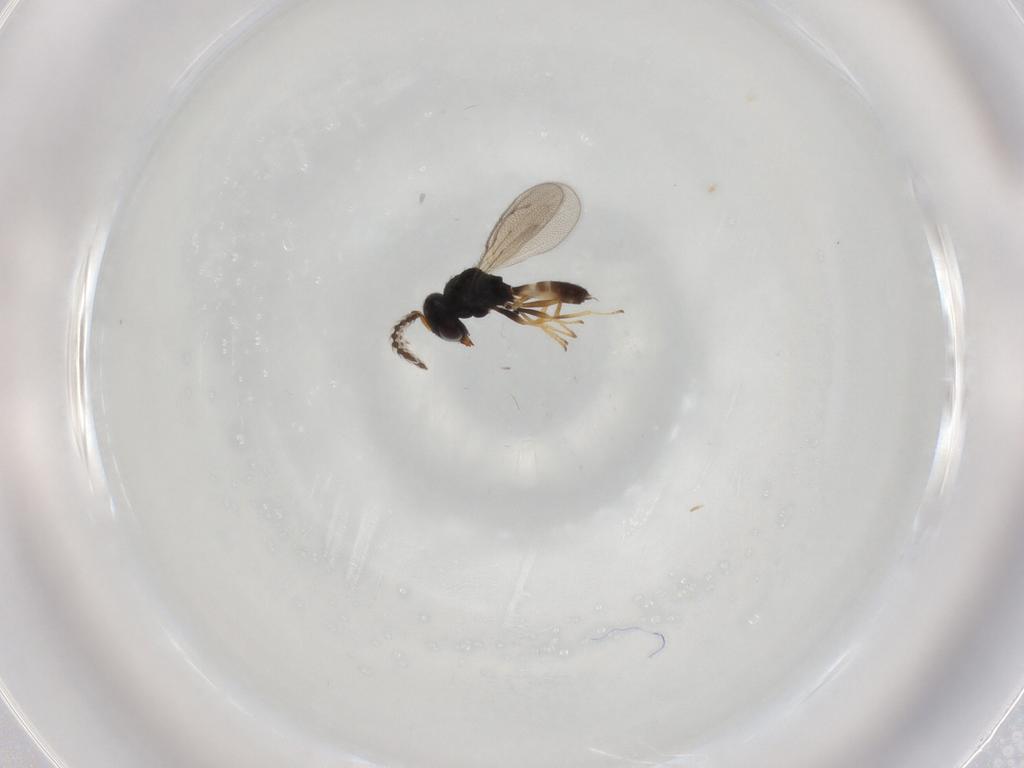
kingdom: Animalia
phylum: Arthropoda
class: Insecta
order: Hymenoptera
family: Pteromalidae
